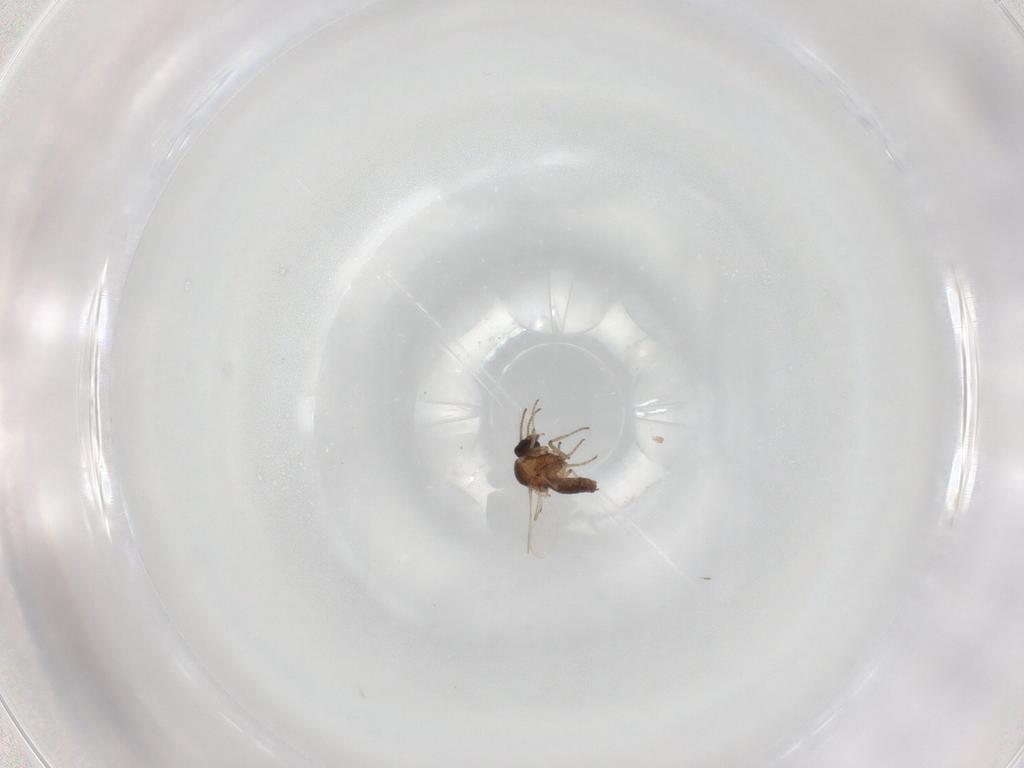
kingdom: Animalia
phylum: Arthropoda
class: Insecta
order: Diptera
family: Ceratopogonidae
